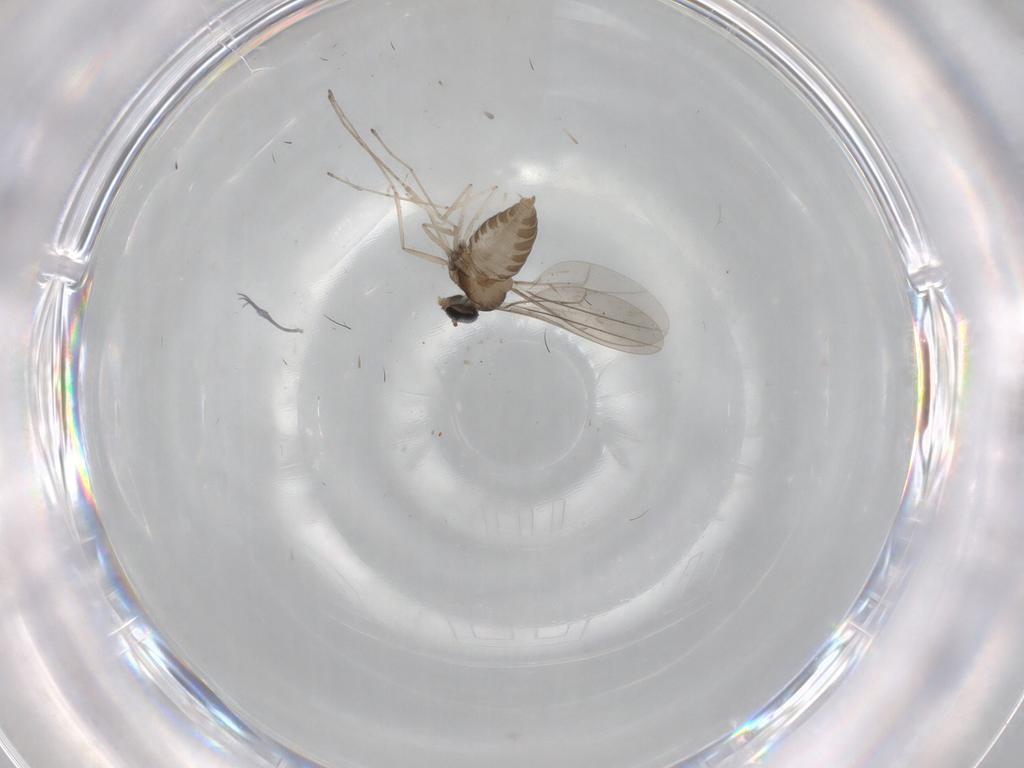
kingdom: Animalia
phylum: Arthropoda
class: Insecta
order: Diptera
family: Cecidomyiidae
